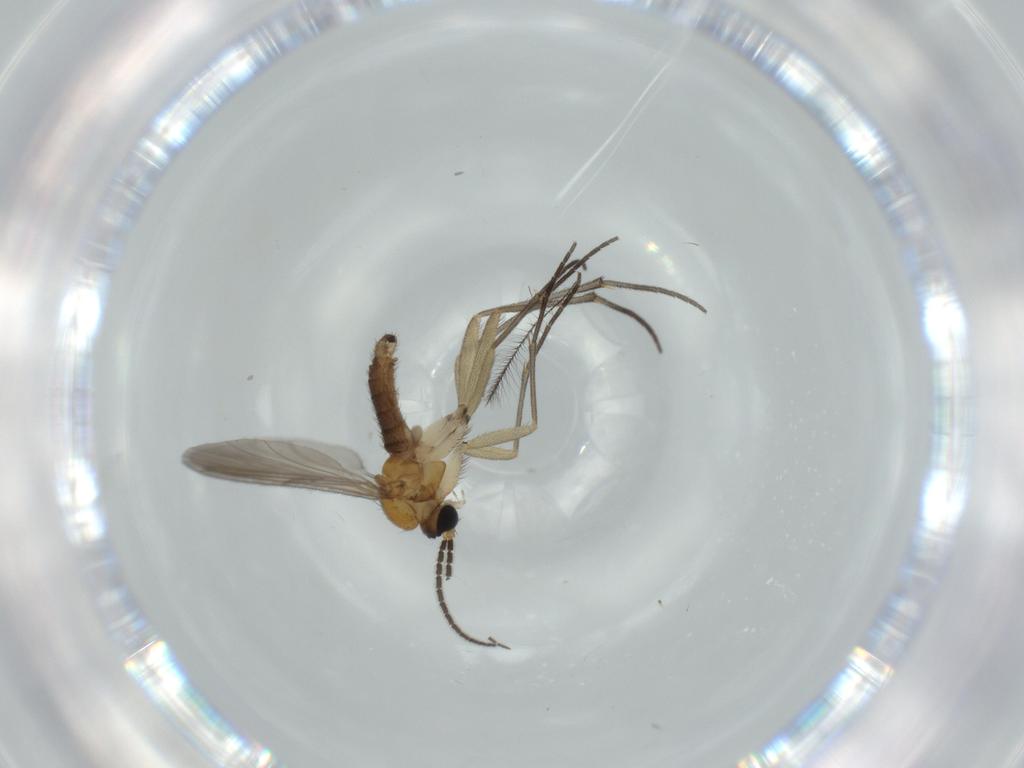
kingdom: Animalia
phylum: Arthropoda
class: Insecta
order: Diptera
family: Sciaridae
